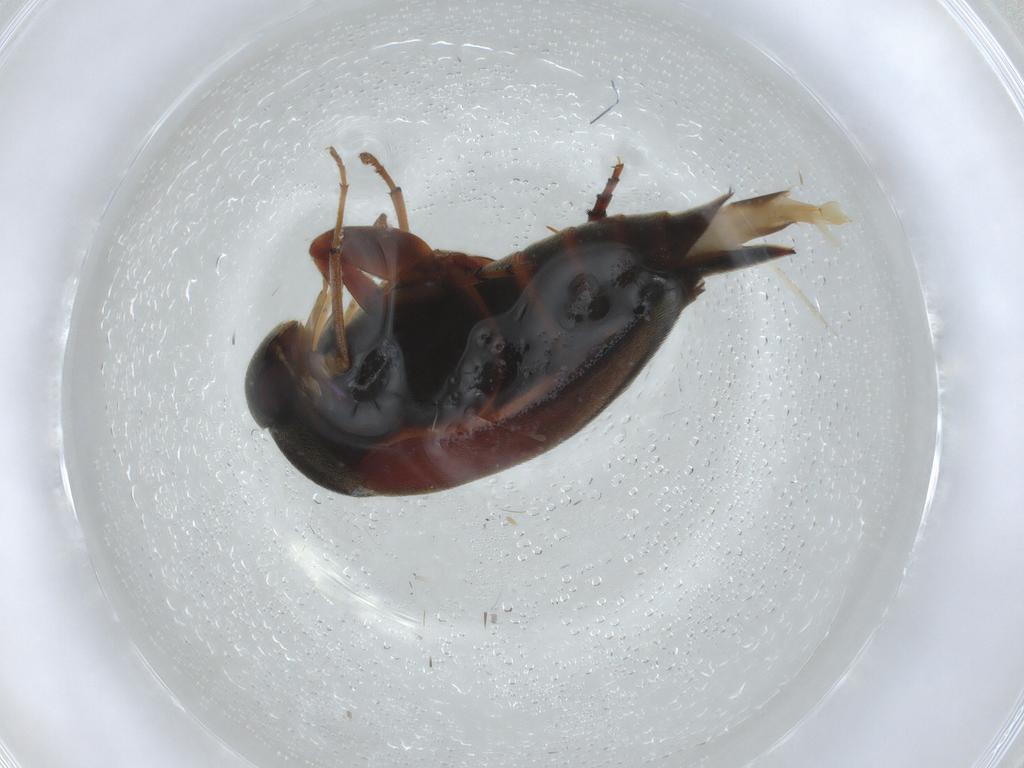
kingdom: Animalia
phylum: Arthropoda
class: Insecta
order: Coleoptera
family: Mordellidae
